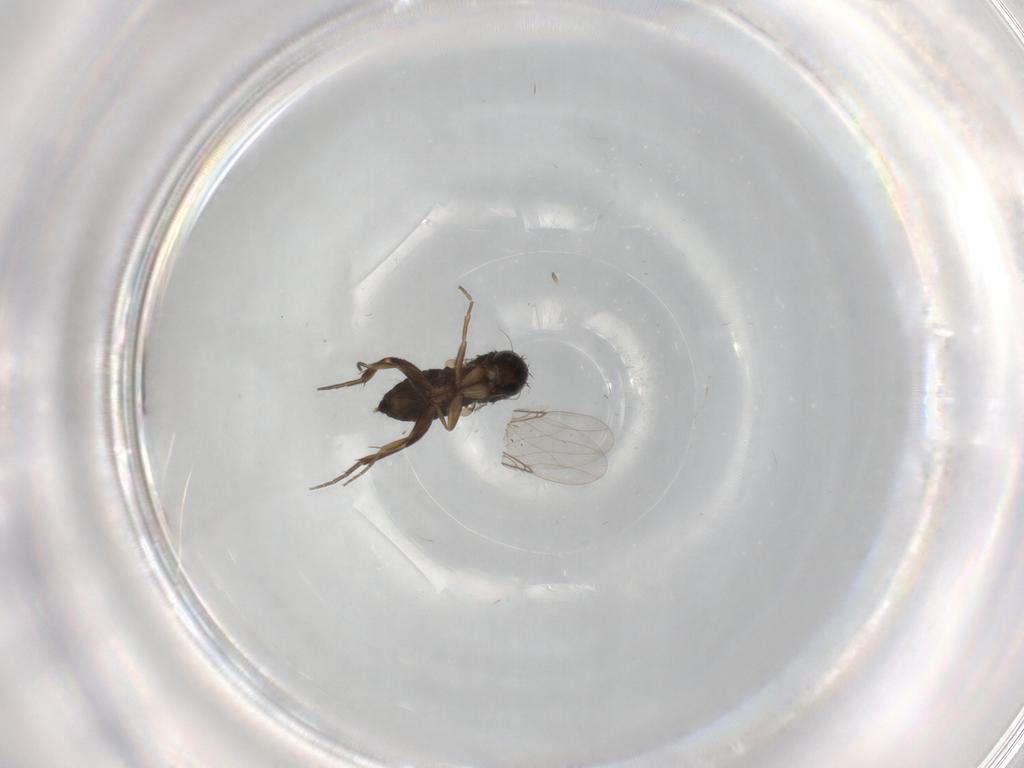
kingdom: Animalia
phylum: Arthropoda
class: Insecta
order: Diptera
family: Phoridae
